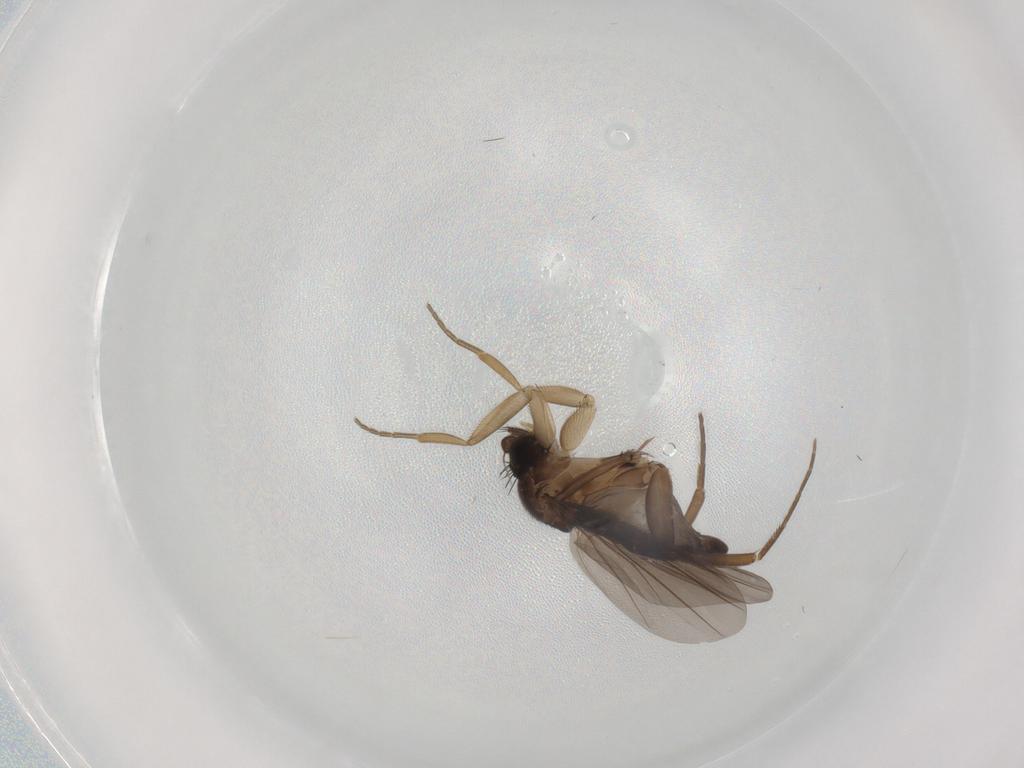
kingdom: Animalia
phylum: Arthropoda
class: Insecta
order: Diptera
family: Phoridae
